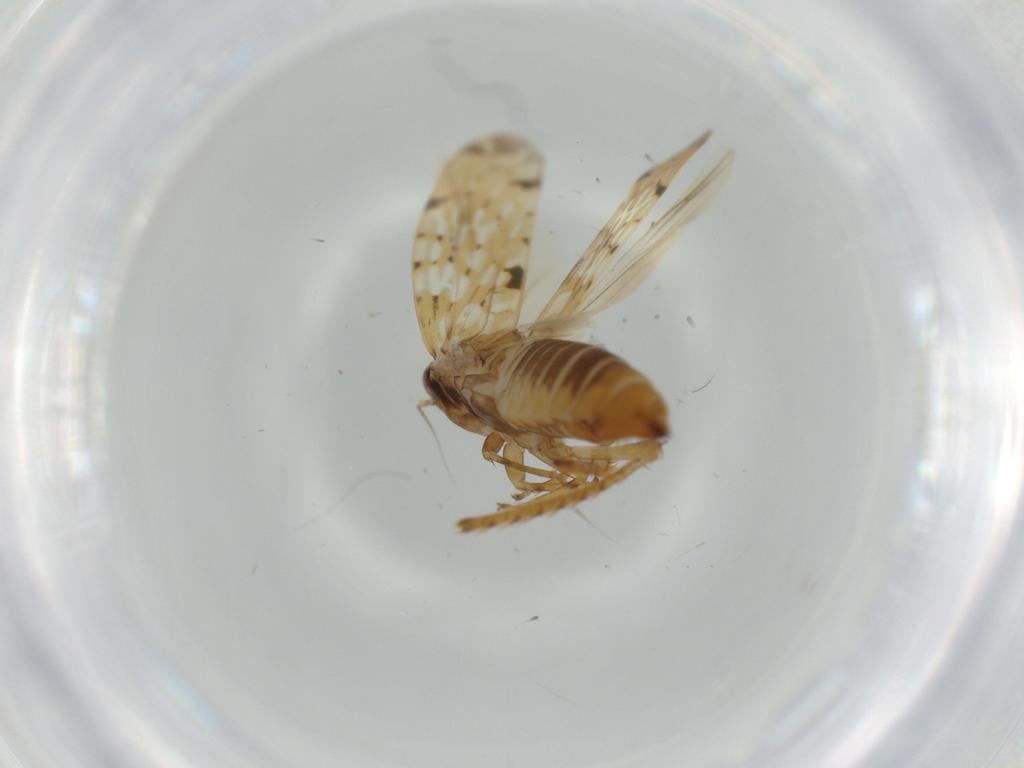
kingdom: Animalia
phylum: Arthropoda
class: Insecta
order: Hemiptera
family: Cicadellidae
